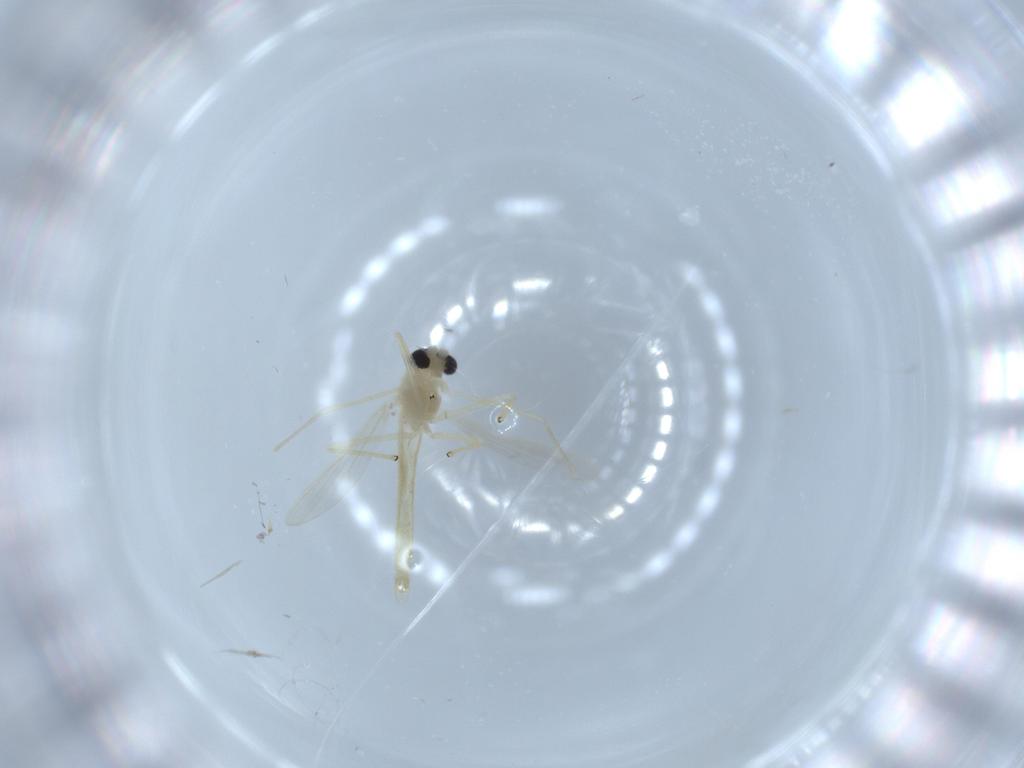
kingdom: Animalia
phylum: Arthropoda
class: Insecta
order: Diptera
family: Chironomidae
